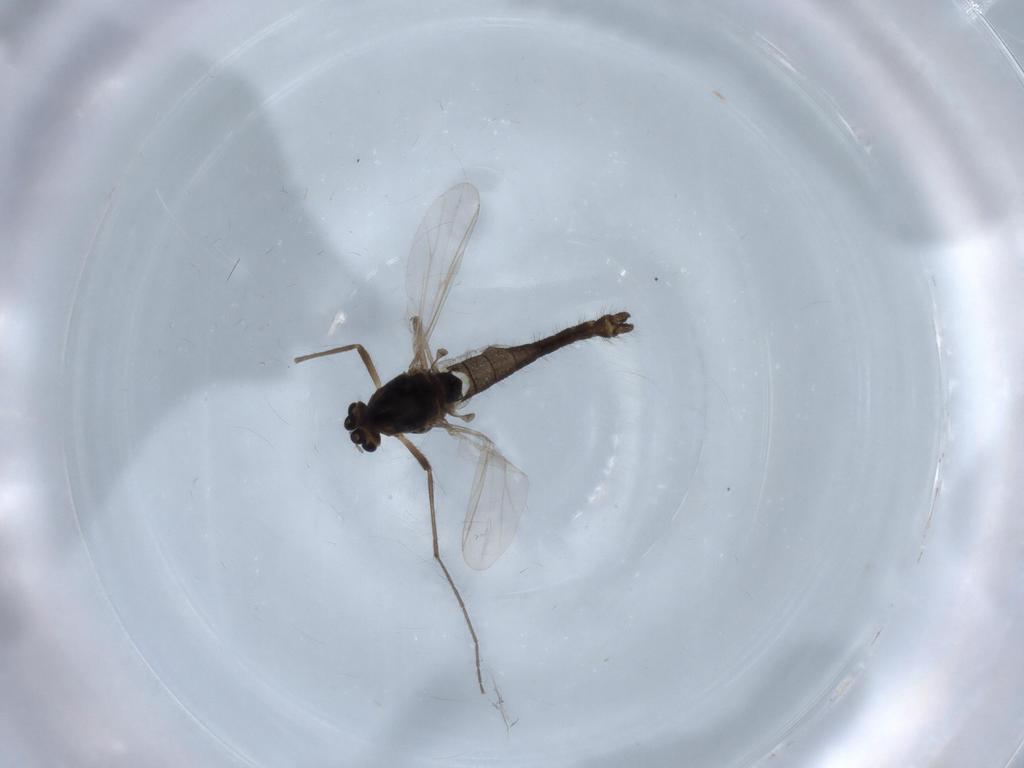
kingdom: Animalia
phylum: Arthropoda
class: Insecta
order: Diptera
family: Chironomidae
